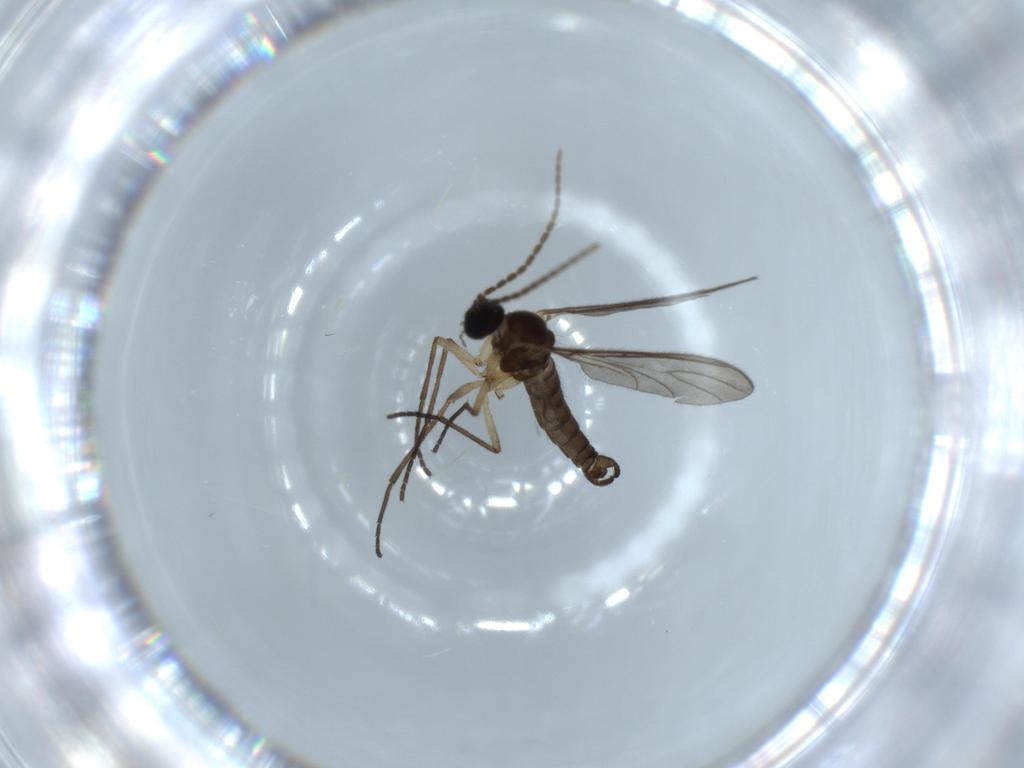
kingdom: Animalia
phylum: Arthropoda
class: Insecta
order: Diptera
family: Sciaridae
